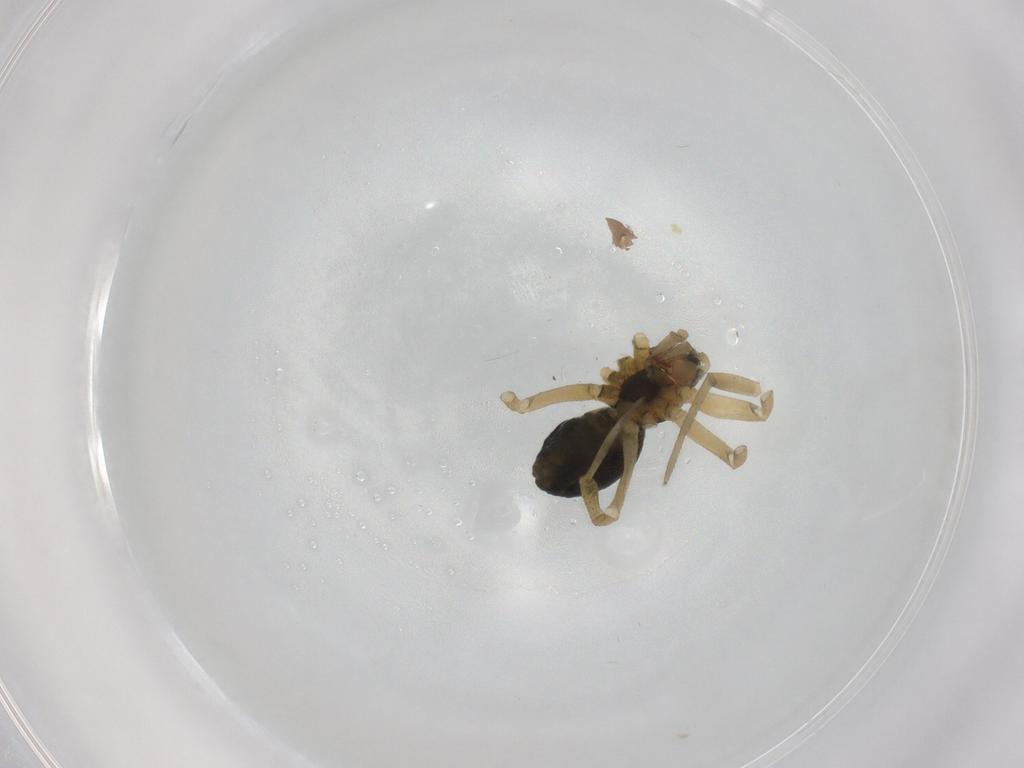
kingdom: Animalia
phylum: Arthropoda
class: Arachnida
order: Araneae
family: Linyphiidae
